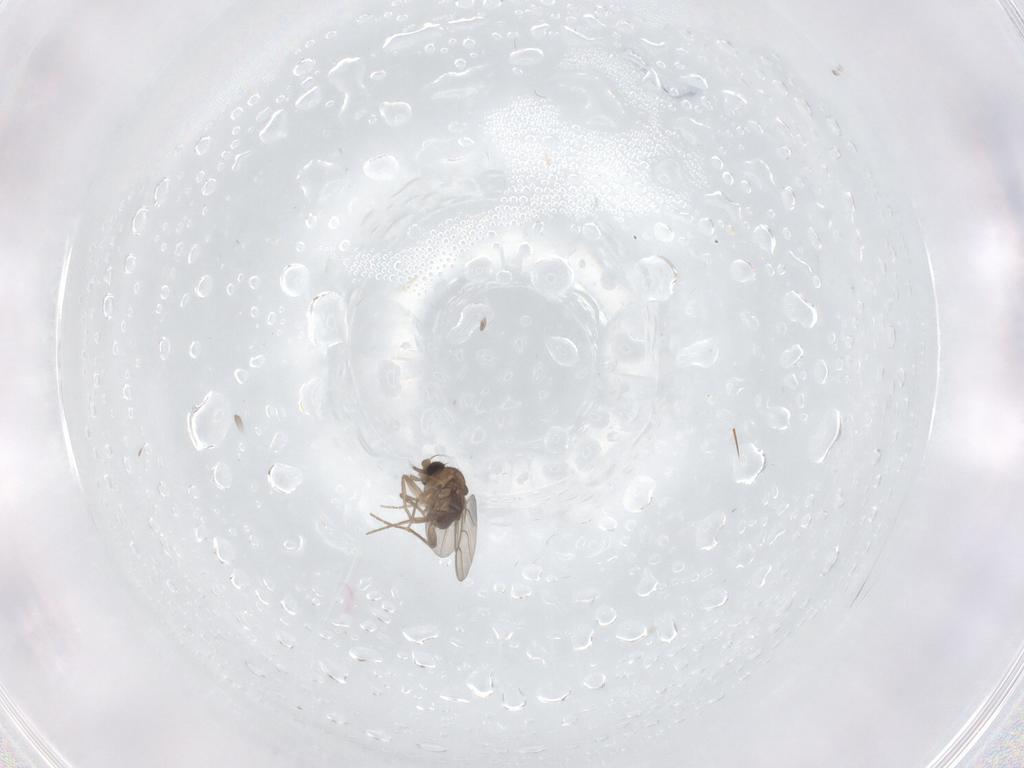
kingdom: Animalia
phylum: Arthropoda
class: Insecta
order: Diptera
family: Phoridae
